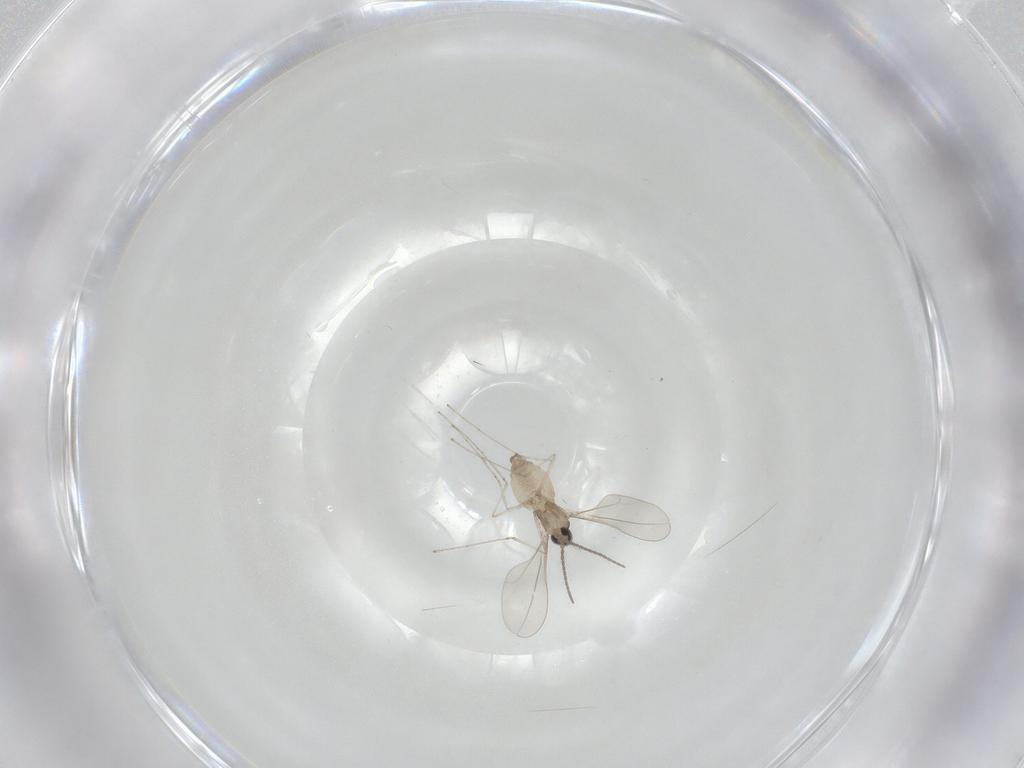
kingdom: Animalia
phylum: Arthropoda
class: Insecta
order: Diptera
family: Cecidomyiidae
